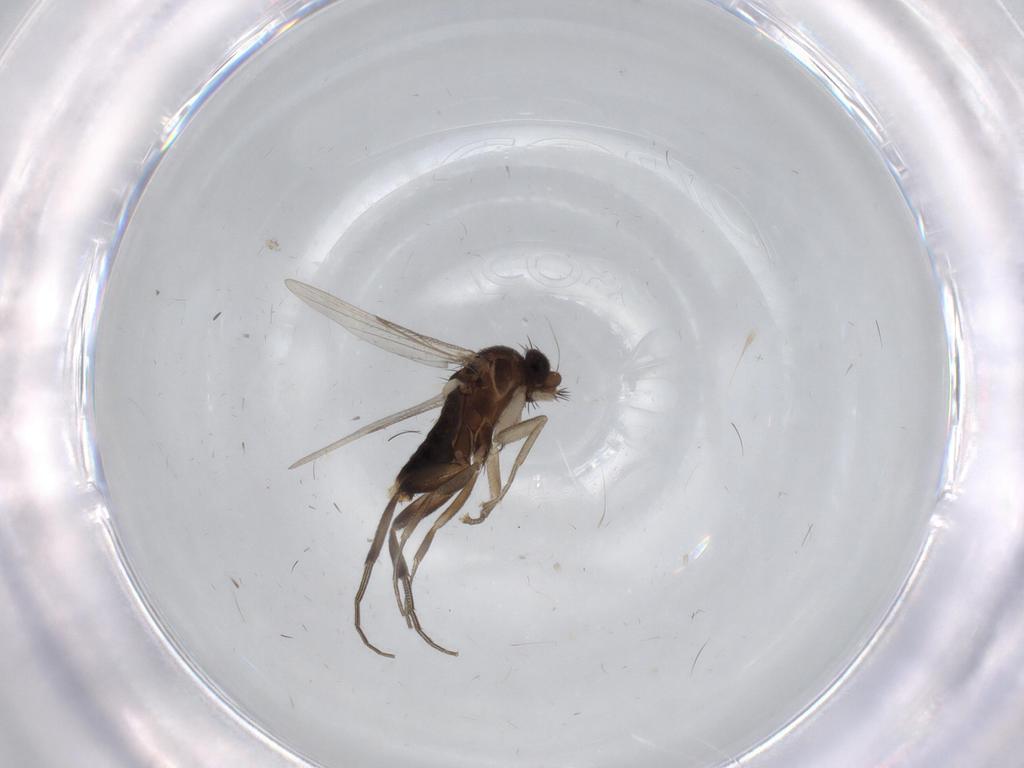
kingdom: Animalia
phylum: Arthropoda
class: Insecta
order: Diptera
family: Phoridae
